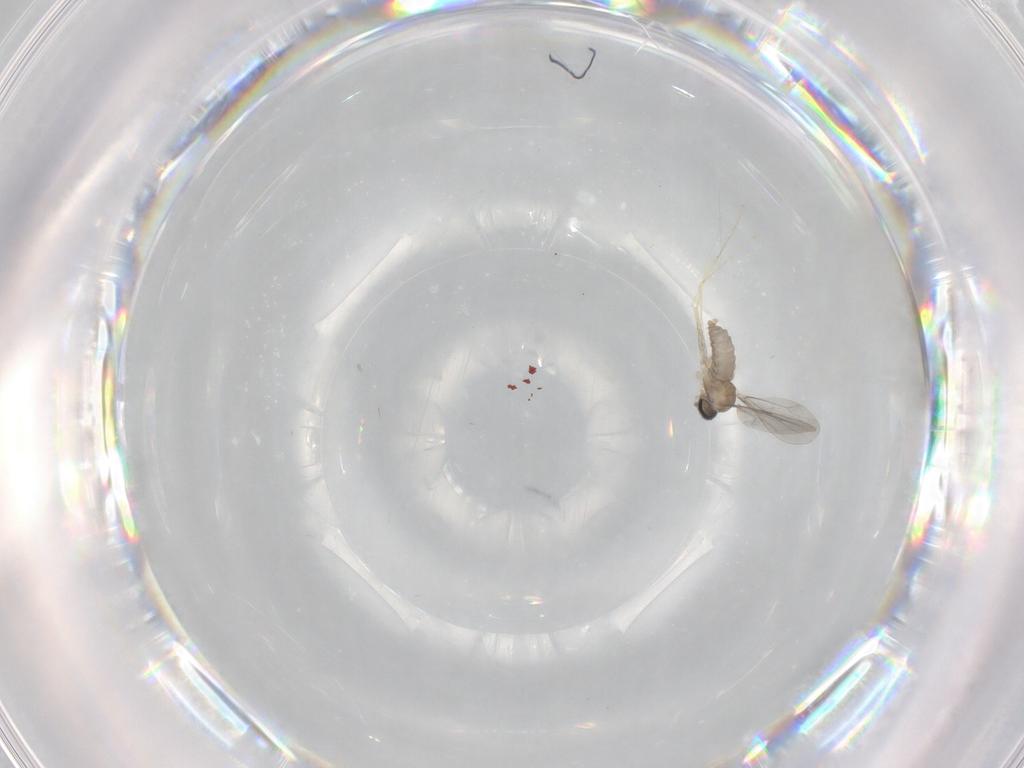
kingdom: Animalia
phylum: Arthropoda
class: Insecta
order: Diptera
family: Cecidomyiidae
